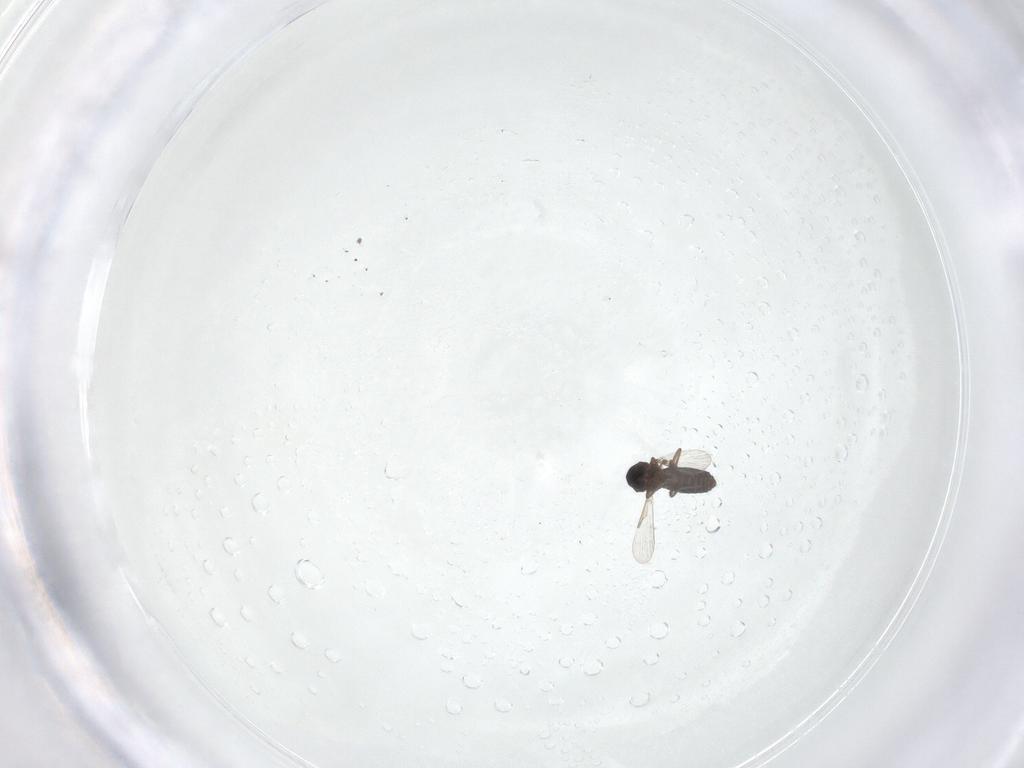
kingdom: Animalia
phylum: Arthropoda
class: Insecta
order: Diptera
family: Ceratopogonidae
